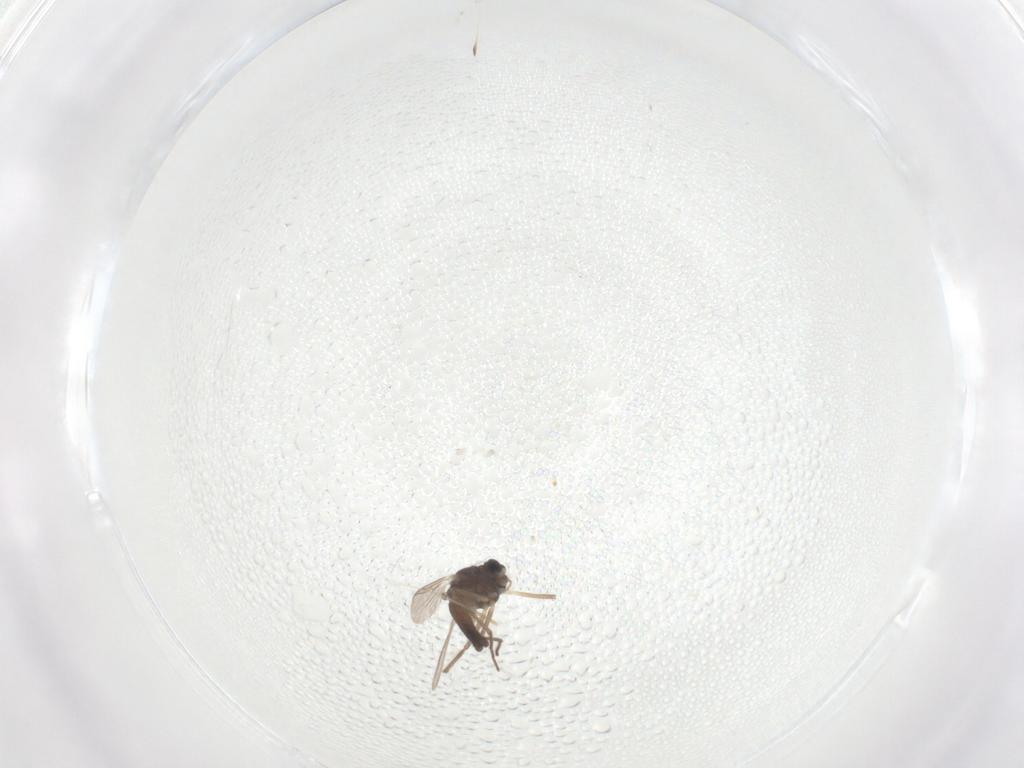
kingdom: Animalia
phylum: Arthropoda
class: Insecta
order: Diptera
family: Chironomidae
